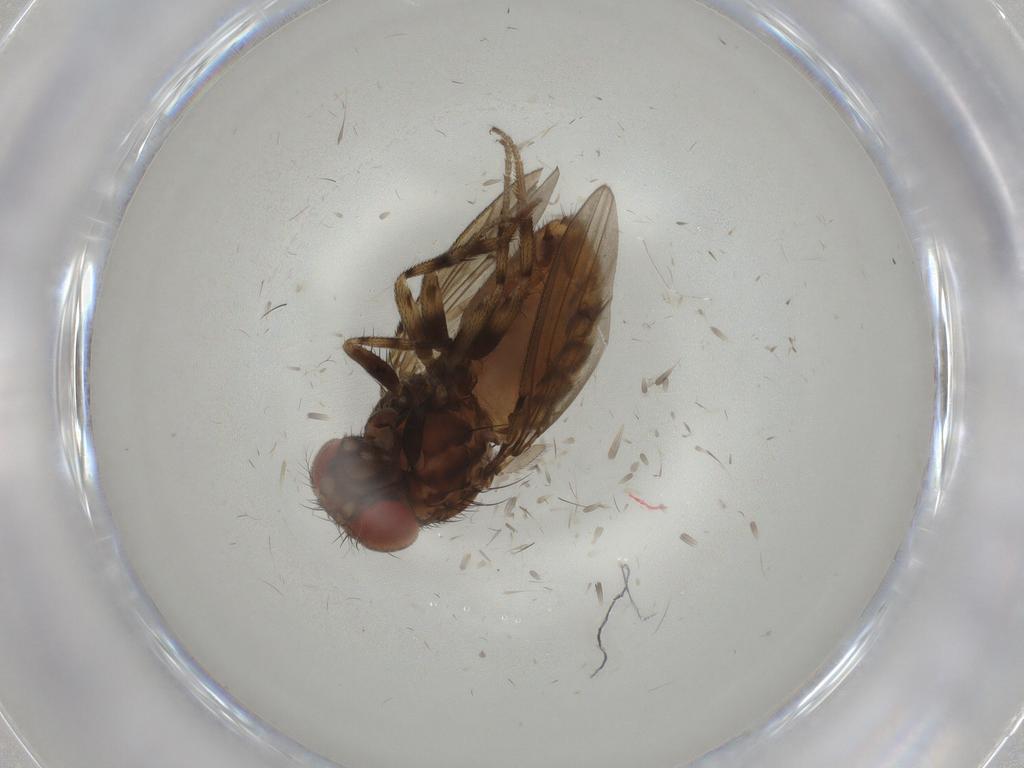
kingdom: Animalia
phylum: Arthropoda
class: Insecta
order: Diptera
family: Drosophilidae
